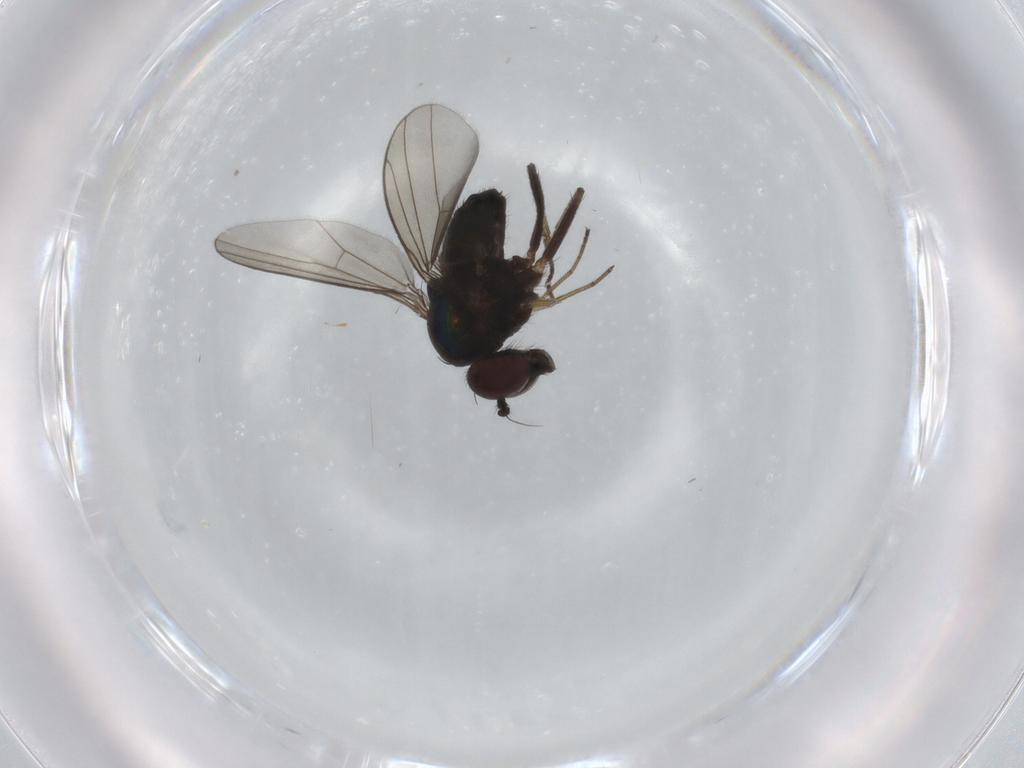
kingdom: Animalia
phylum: Arthropoda
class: Insecta
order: Diptera
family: Dolichopodidae
